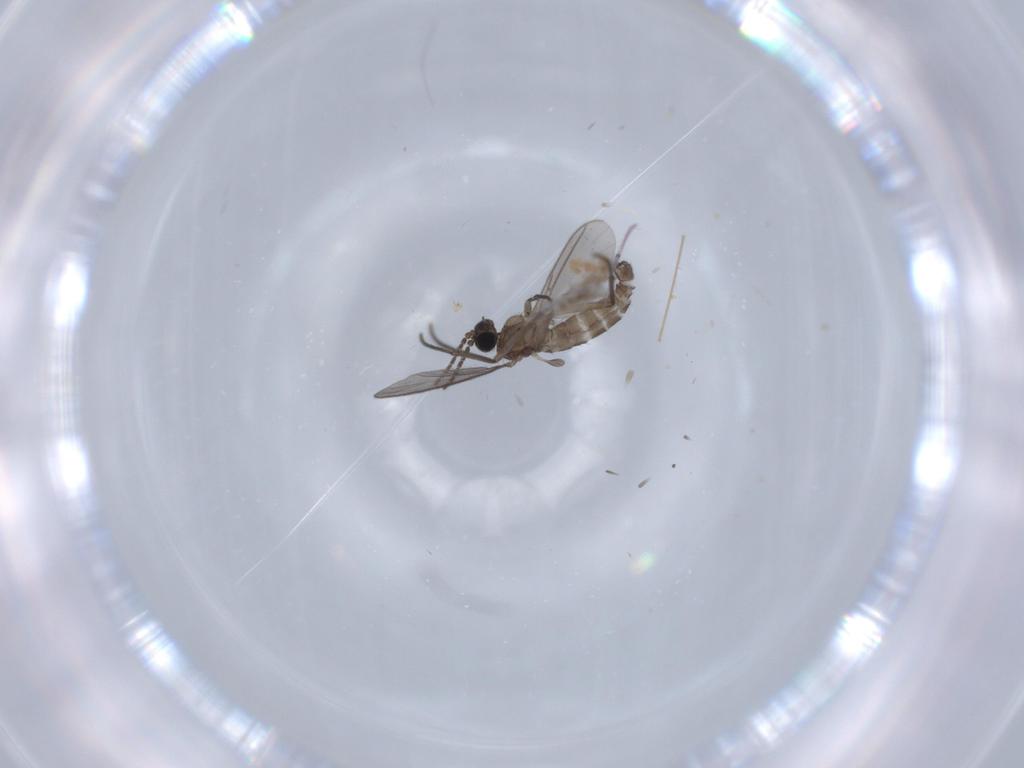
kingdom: Animalia
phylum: Arthropoda
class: Insecta
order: Diptera
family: Sciaridae
